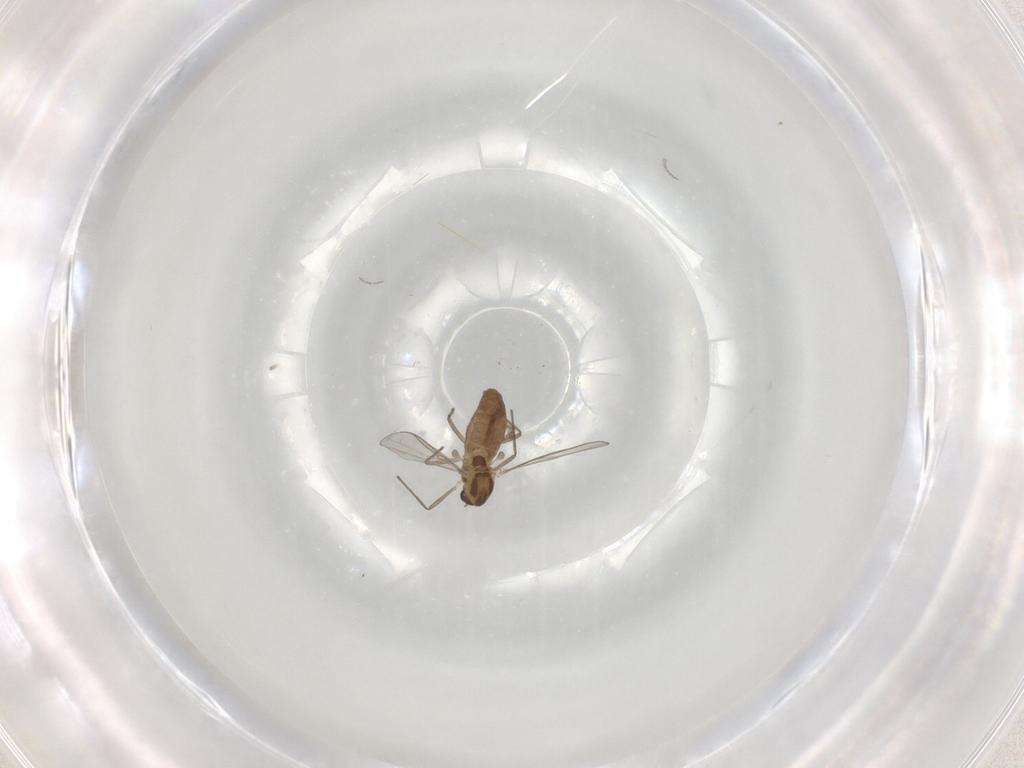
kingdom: Animalia
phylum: Arthropoda
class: Insecta
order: Diptera
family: Chironomidae
